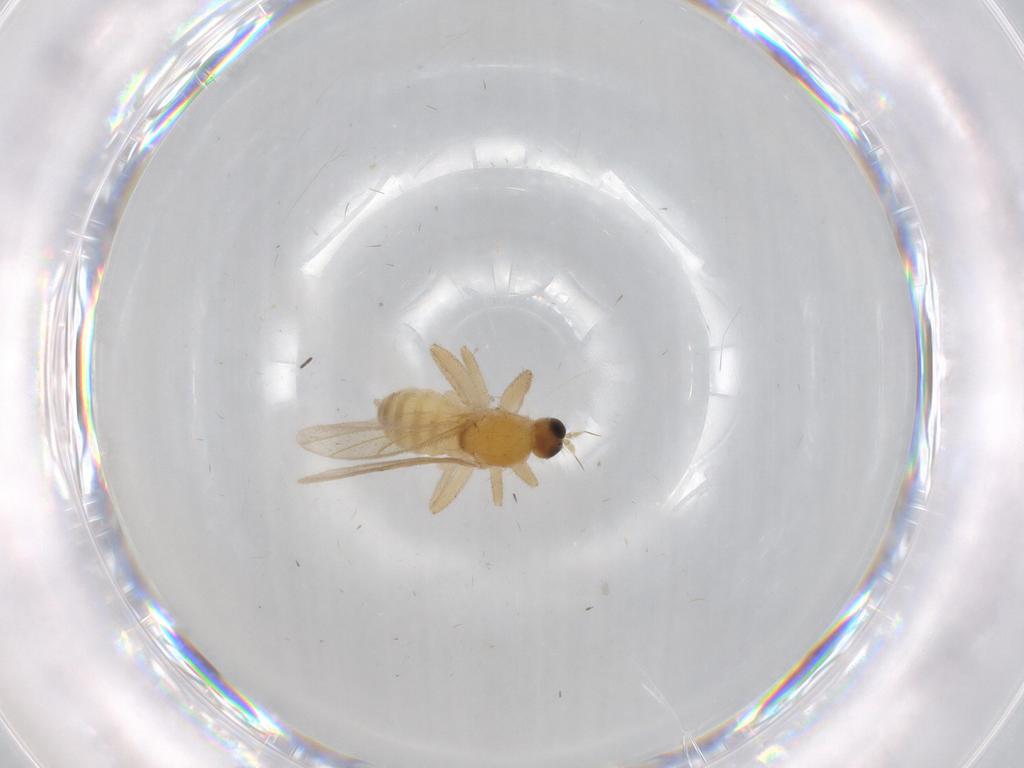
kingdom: Animalia
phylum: Arthropoda
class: Insecta
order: Diptera
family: Hybotidae
